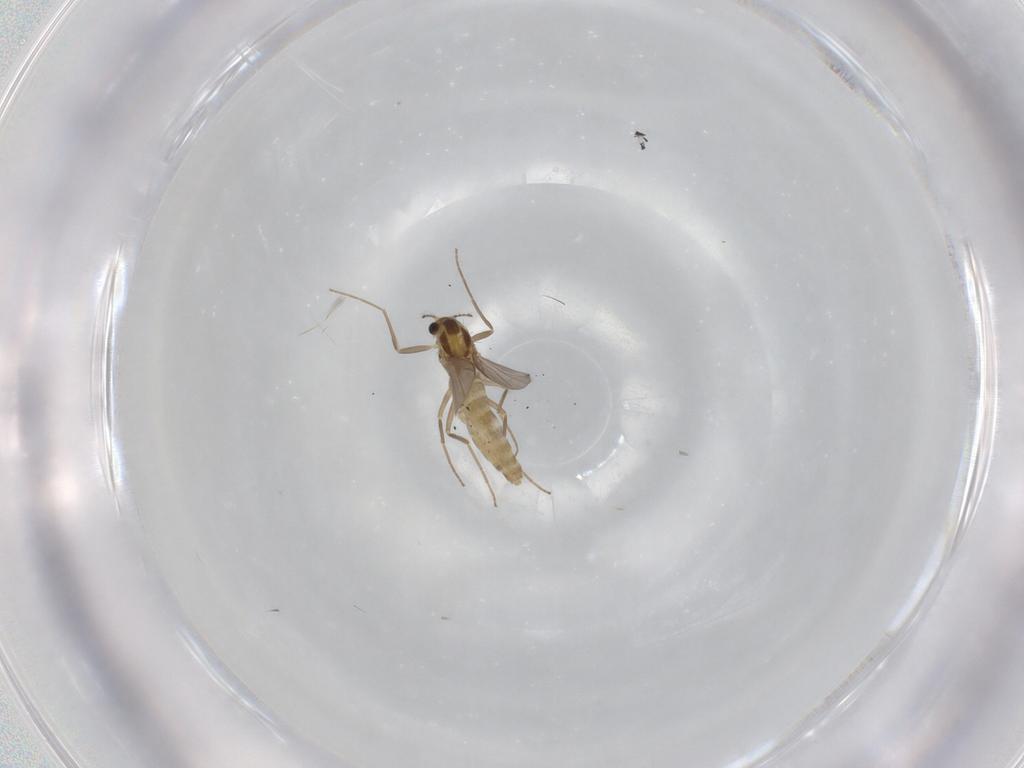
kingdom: Animalia
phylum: Arthropoda
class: Insecta
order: Diptera
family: Chironomidae
